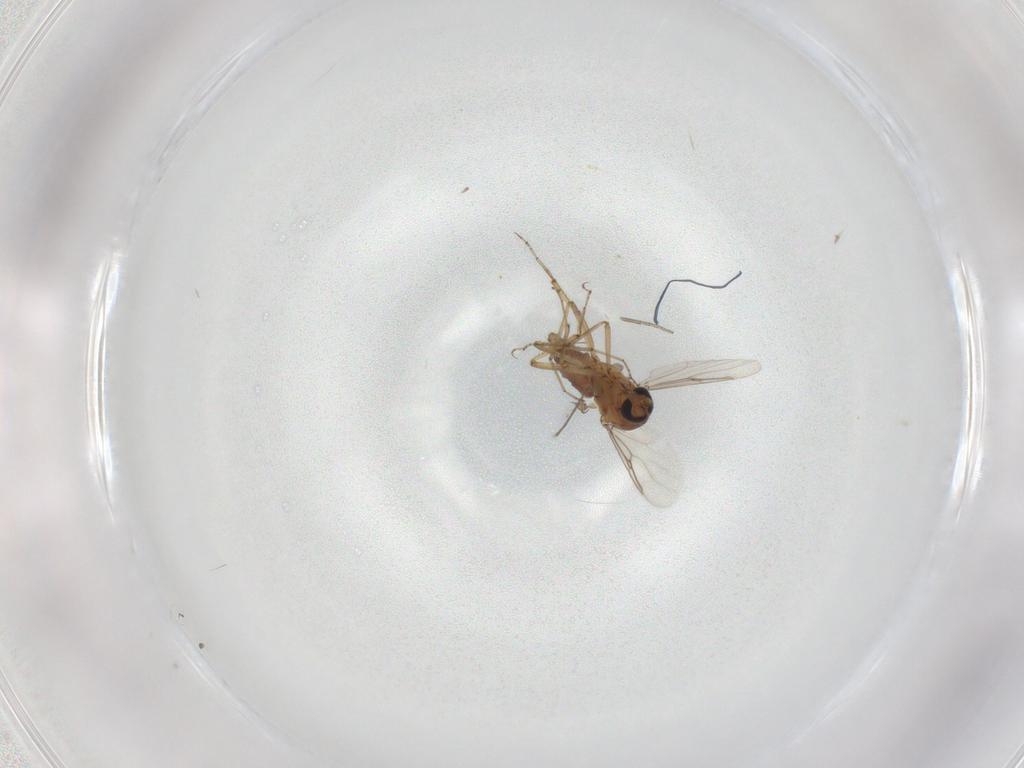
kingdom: Animalia
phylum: Arthropoda
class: Insecta
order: Diptera
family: Ceratopogonidae
